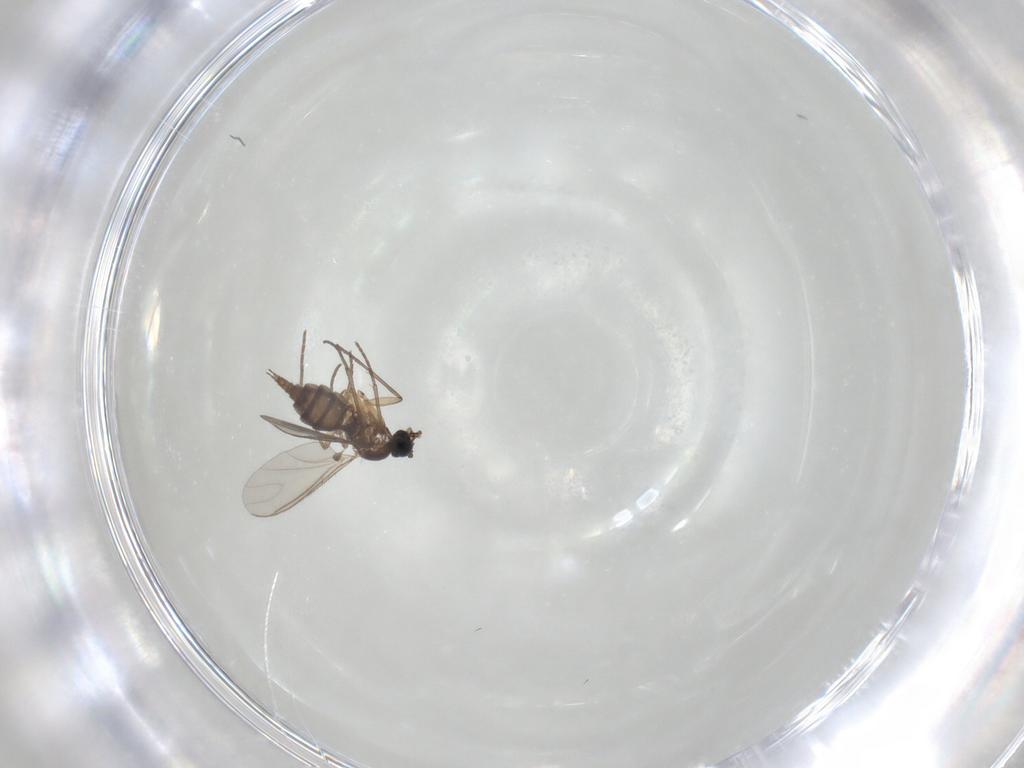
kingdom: Animalia
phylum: Arthropoda
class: Insecta
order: Diptera
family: Sciaridae
